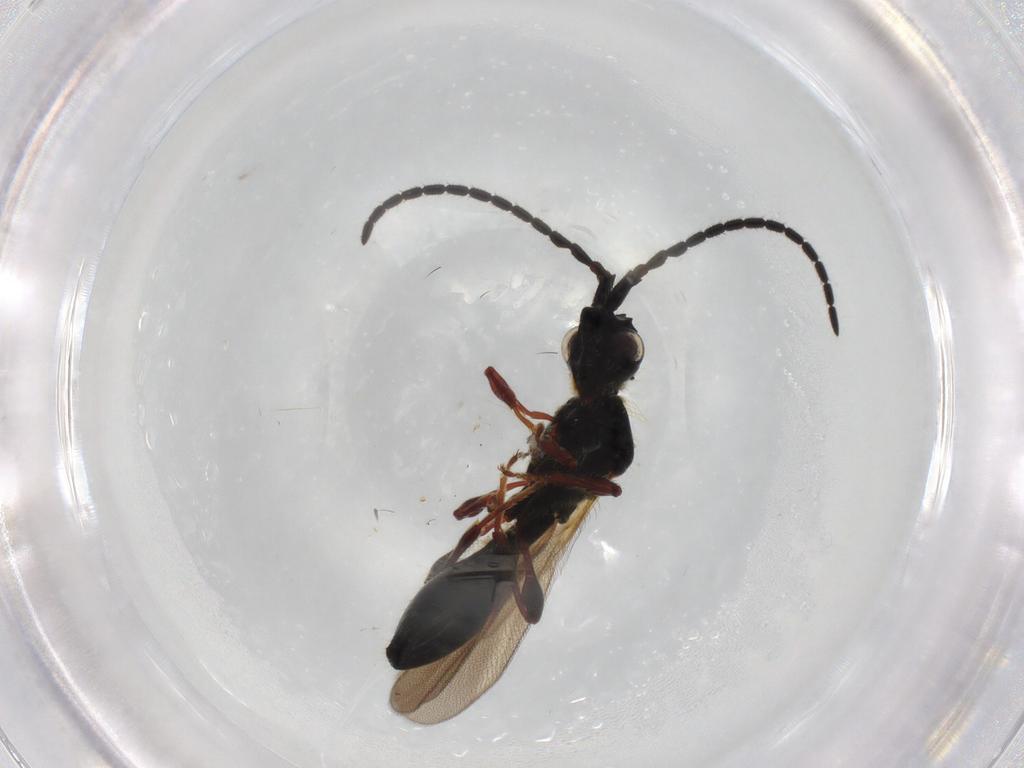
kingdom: Animalia
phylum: Arthropoda
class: Insecta
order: Hymenoptera
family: Diapriidae
